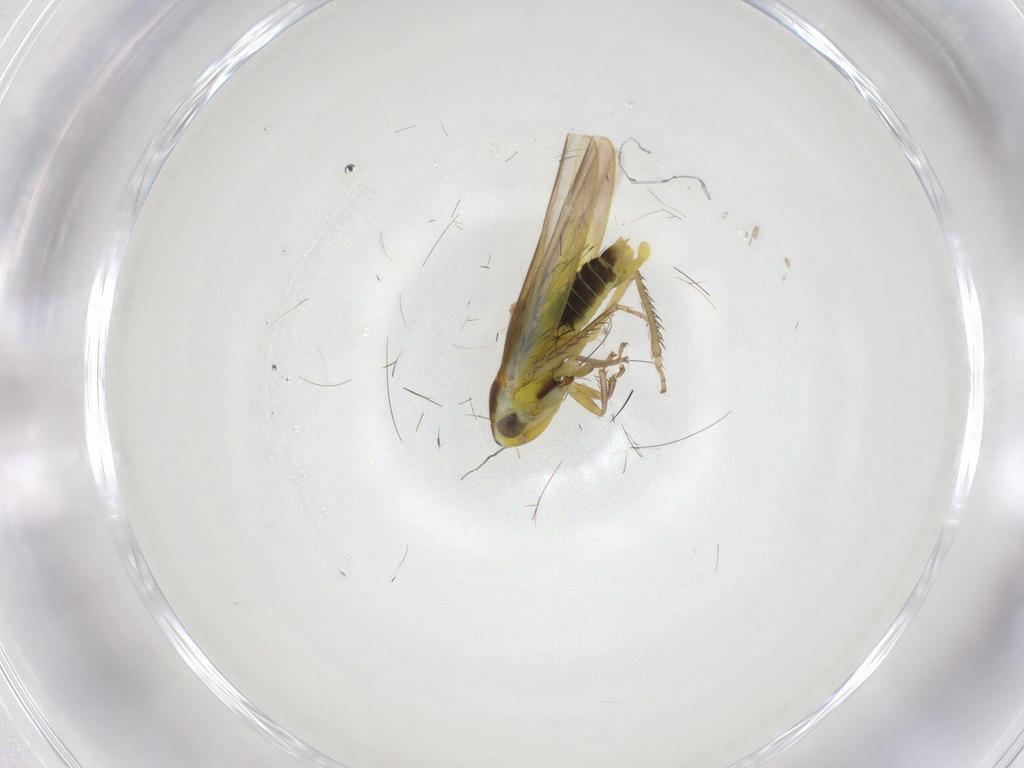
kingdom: Animalia
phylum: Arthropoda
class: Insecta
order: Hemiptera
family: Cicadellidae
